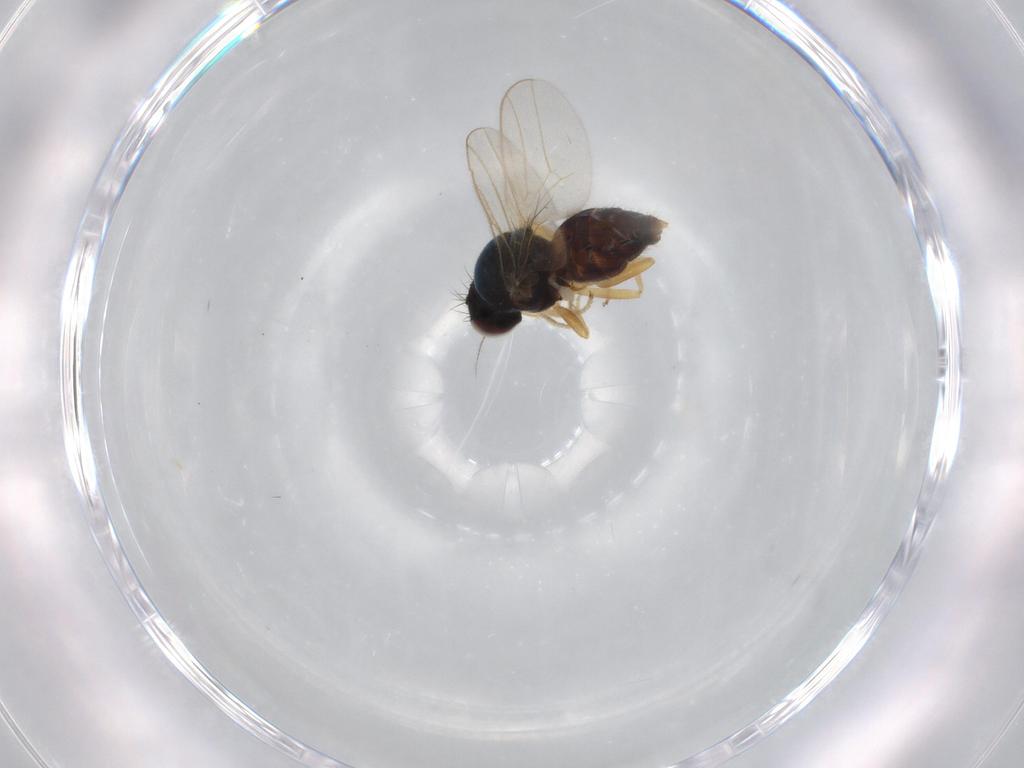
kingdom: Animalia
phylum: Arthropoda
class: Insecta
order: Diptera
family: Chloropidae
